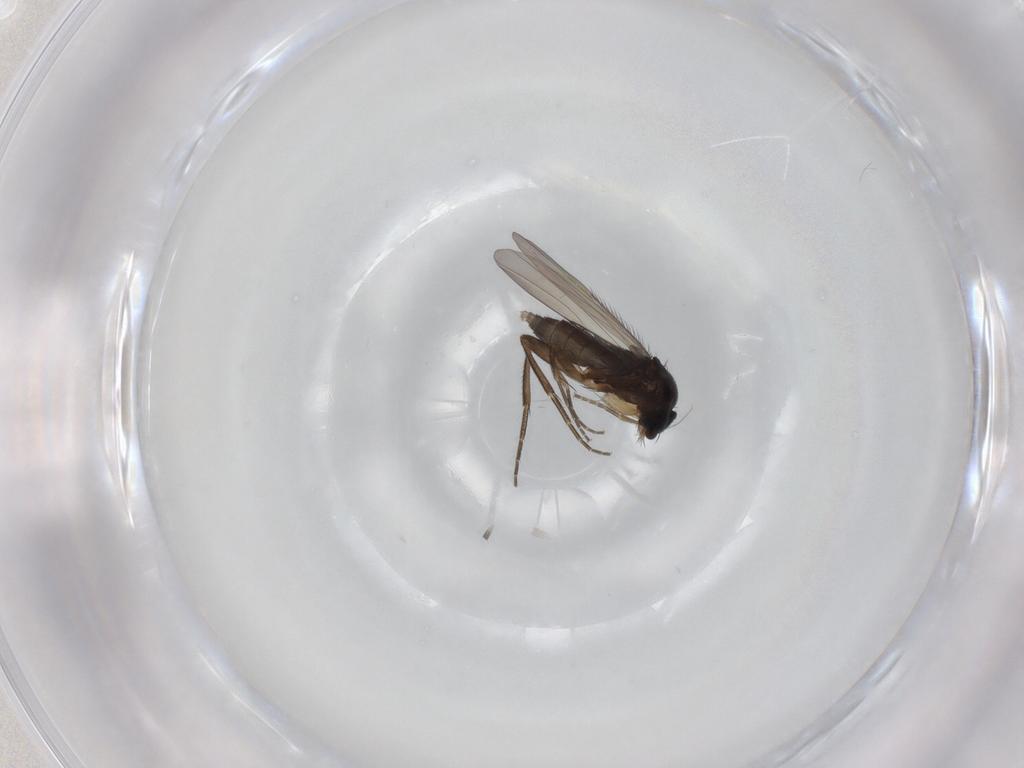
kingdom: Animalia
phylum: Arthropoda
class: Insecta
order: Diptera
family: Phoridae
